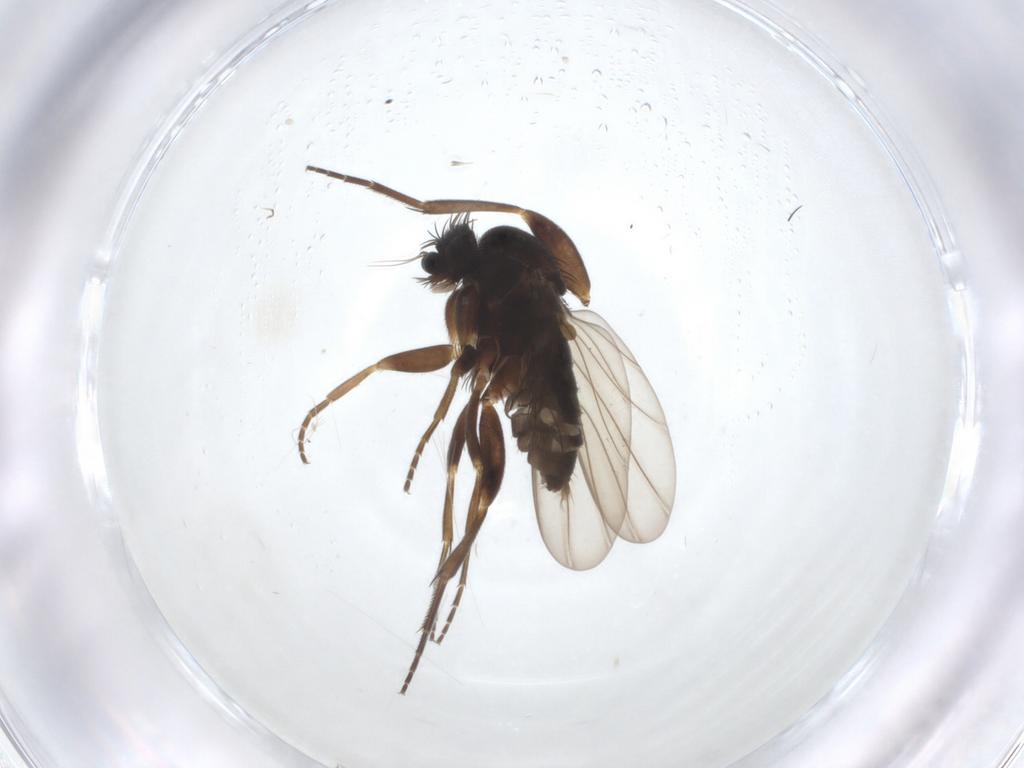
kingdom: Animalia
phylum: Arthropoda
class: Insecta
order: Diptera
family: Phoridae
